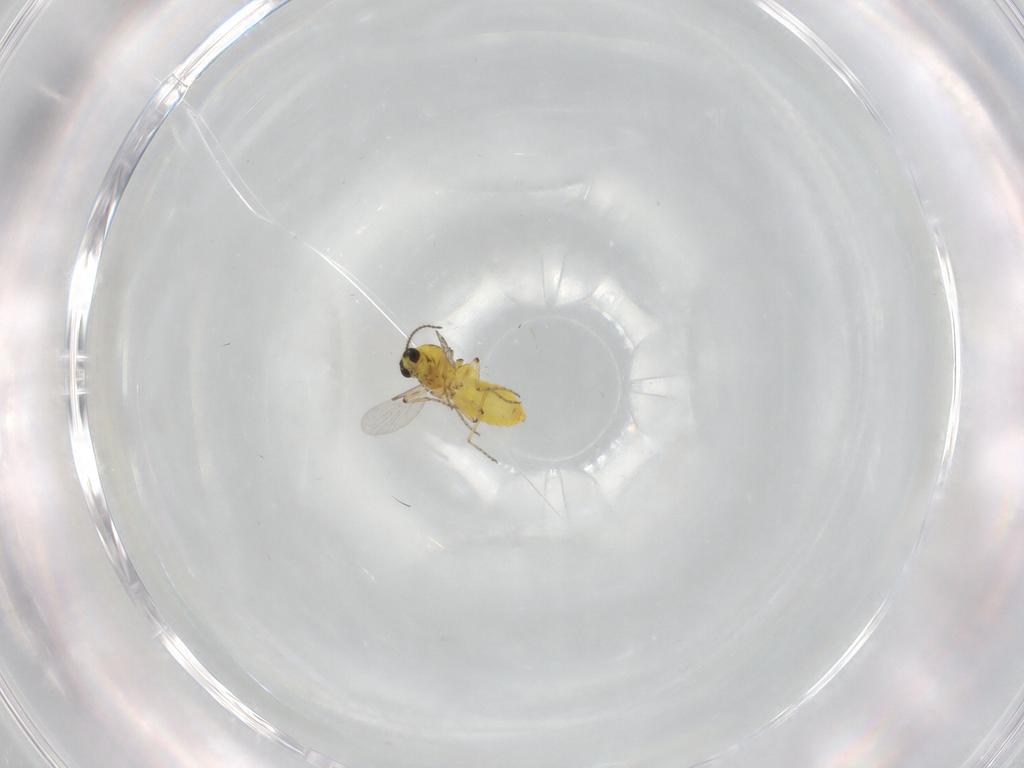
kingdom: Animalia
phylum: Arthropoda
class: Insecta
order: Diptera
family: Ceratopogonidae
